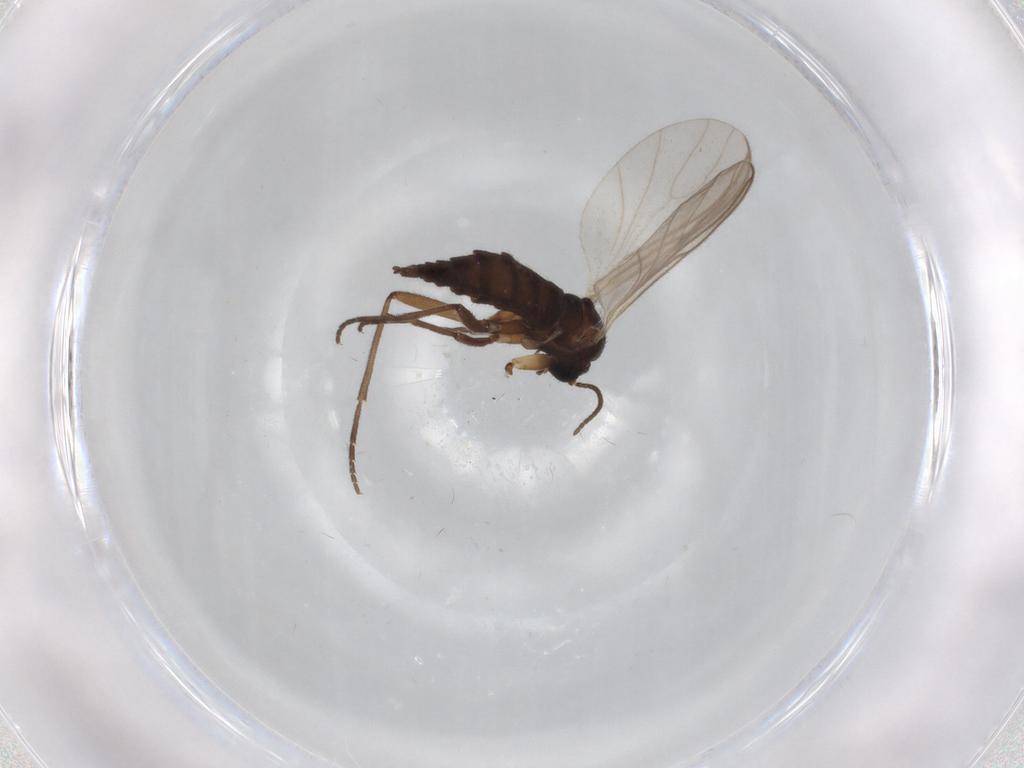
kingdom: Animalia
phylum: Arthropoda
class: Insecta
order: Diptera
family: Sciaridae
